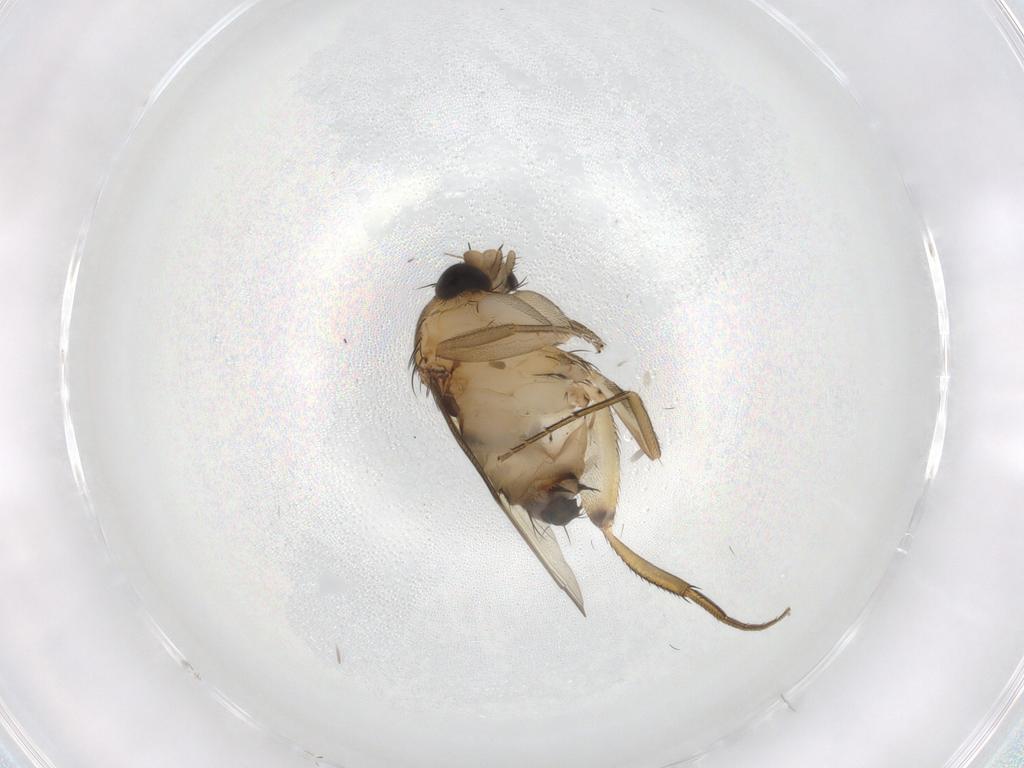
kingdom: Animalia
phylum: Arthropoda
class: Insecta
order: Diptera
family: Phoridae
